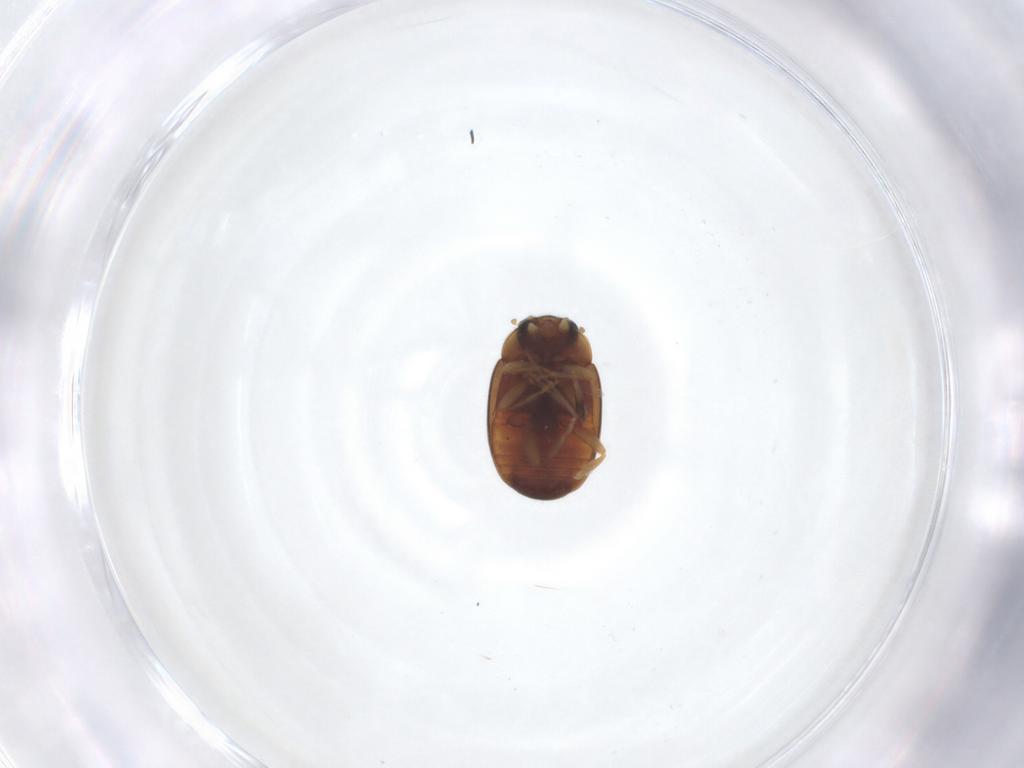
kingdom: Animalia
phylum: Arthropoda
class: Insecta
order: Coleoptera
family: Coccinellidae
